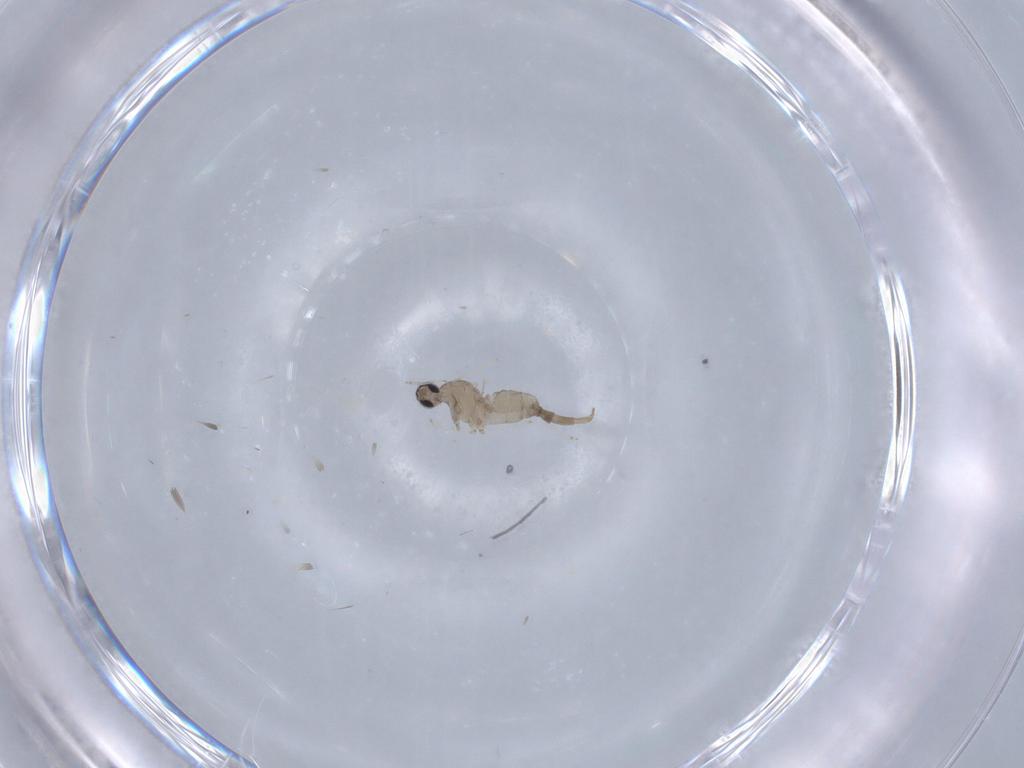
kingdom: Animalia
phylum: Arthropoda
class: Insecta
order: Diptera
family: Cecidomyiidae
